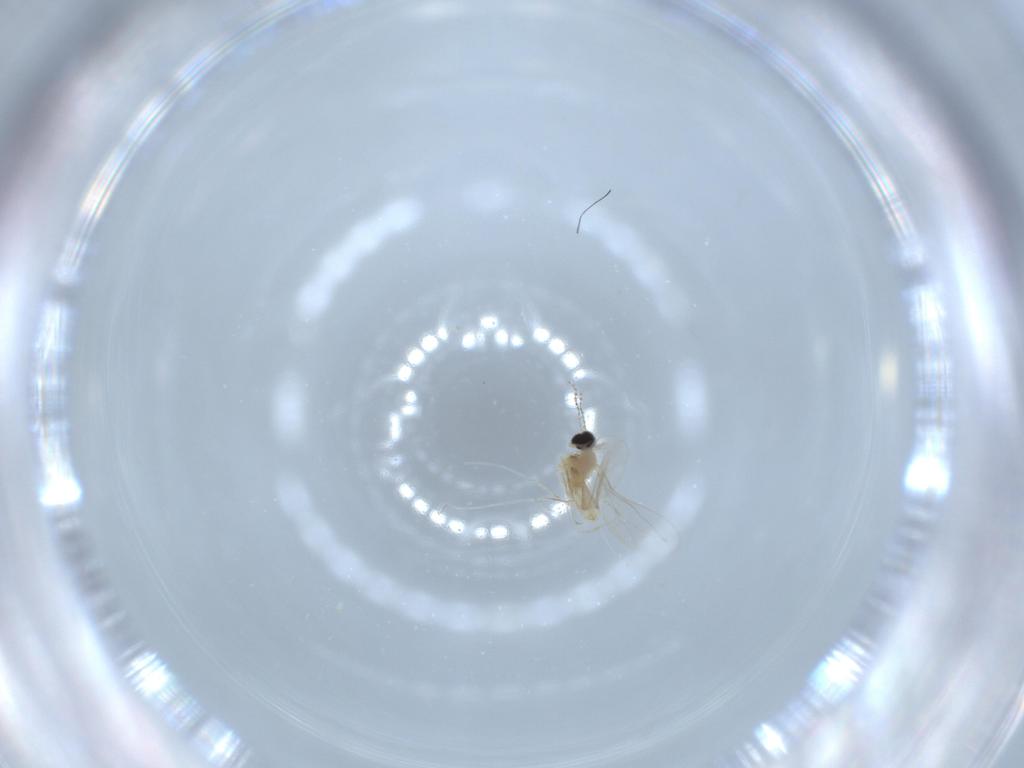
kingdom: Animalia
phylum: Arthropoda
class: Insecta
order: Diptera
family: Cecidomyiidae
